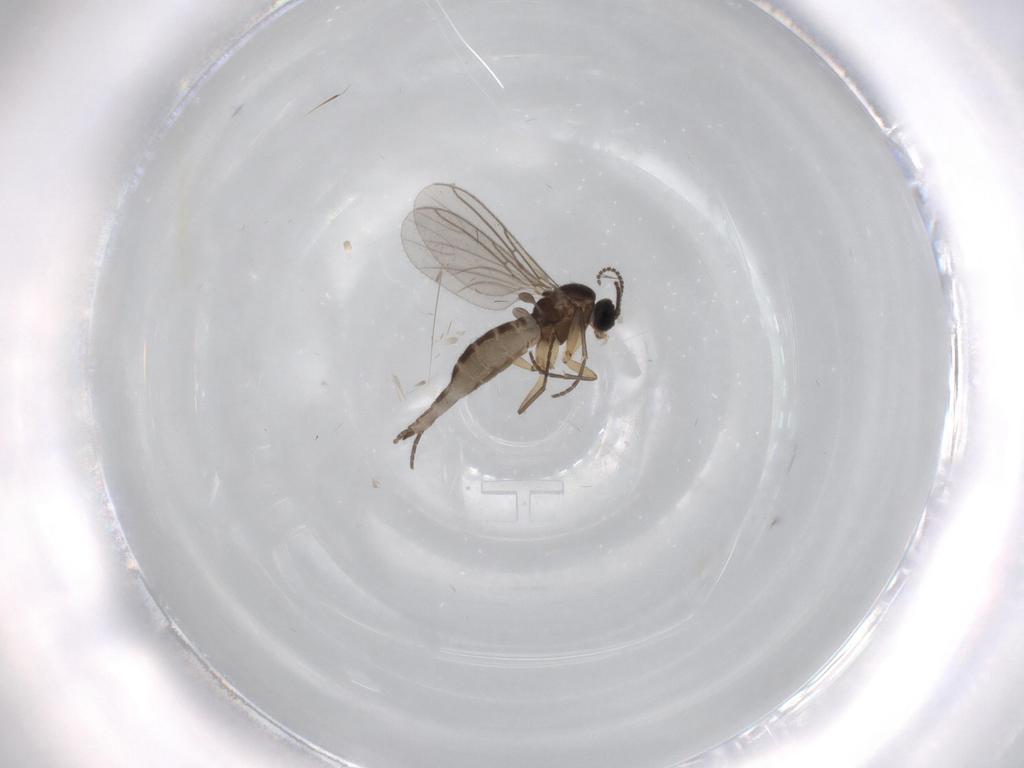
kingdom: Animalia
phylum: Arthropoda
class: Insecta
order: Diptera
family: Sciaridae
